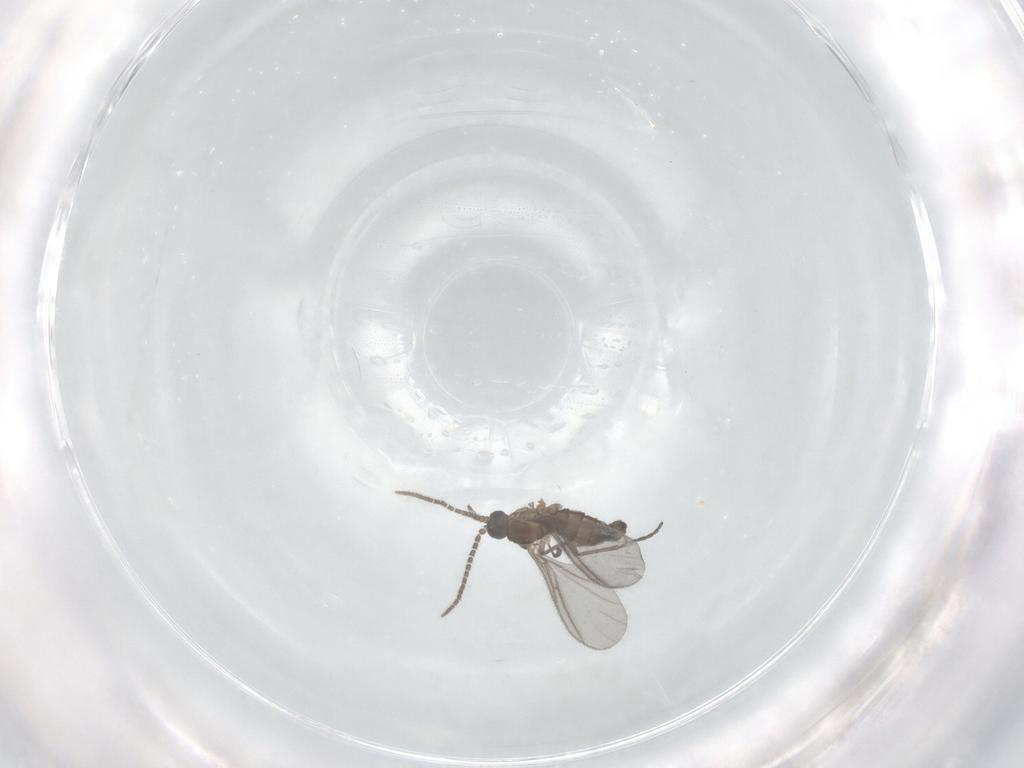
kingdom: Animalia
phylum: Arthropoda
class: Insecta
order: Diptera
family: Sciaridae
